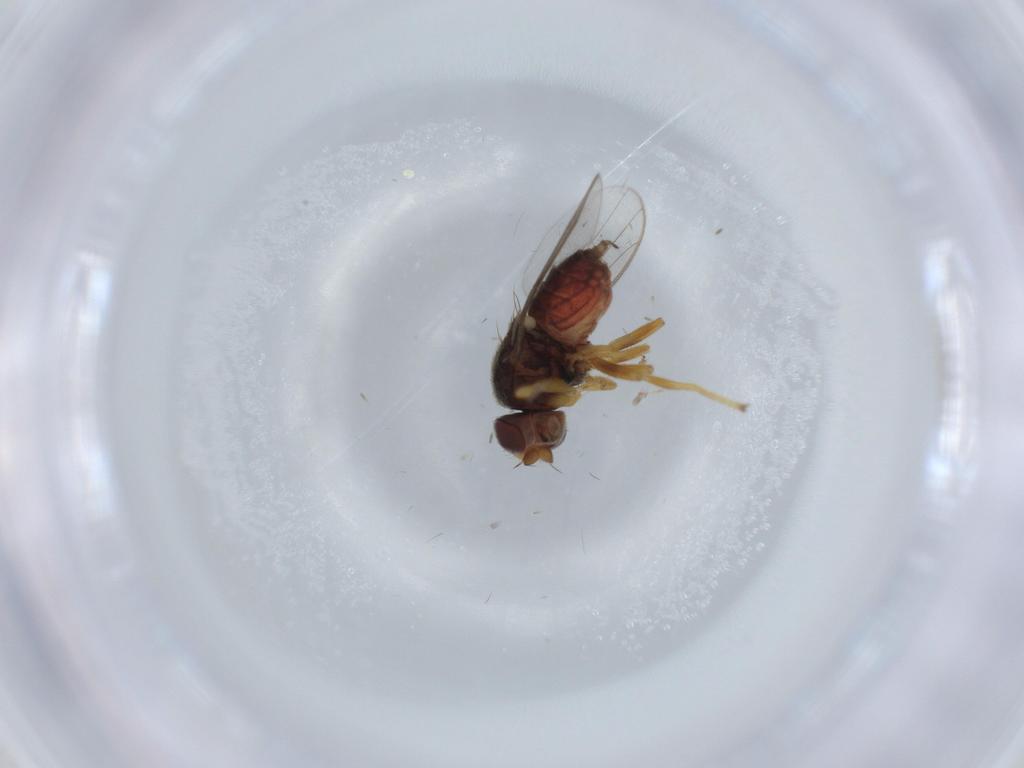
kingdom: Animalia
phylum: Arthropoda
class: Insecta
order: Diptera
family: Chloropidae
